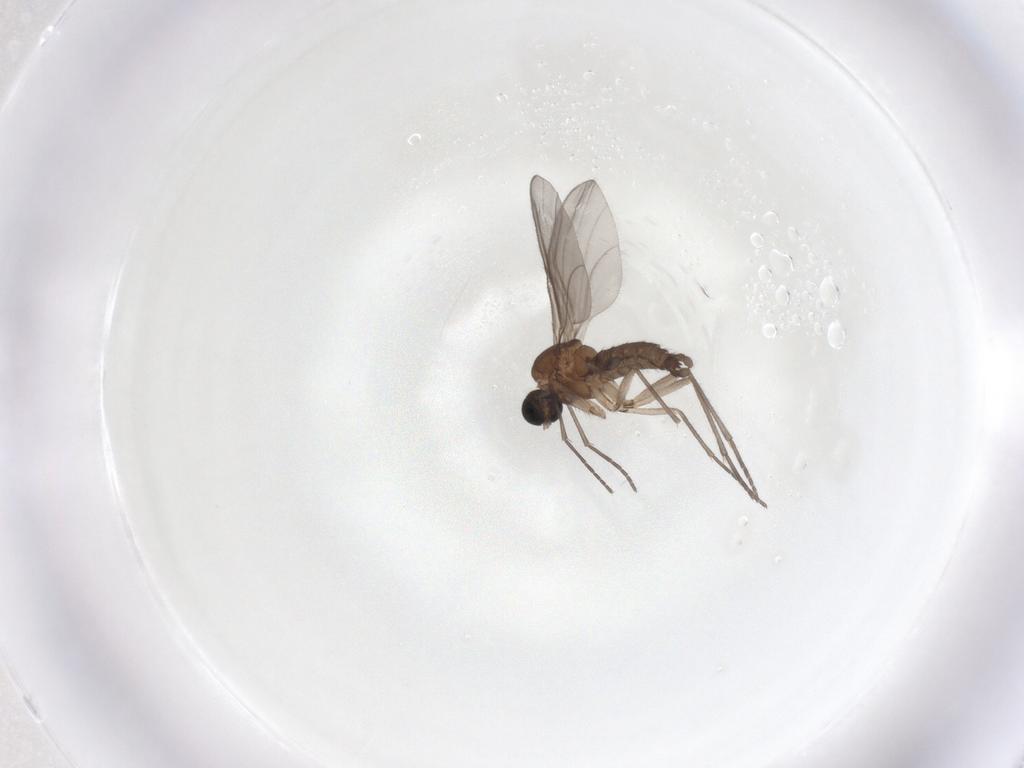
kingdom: Animalia
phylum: Arthropoda
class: Insecta
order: Diptera
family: Sciaridae
